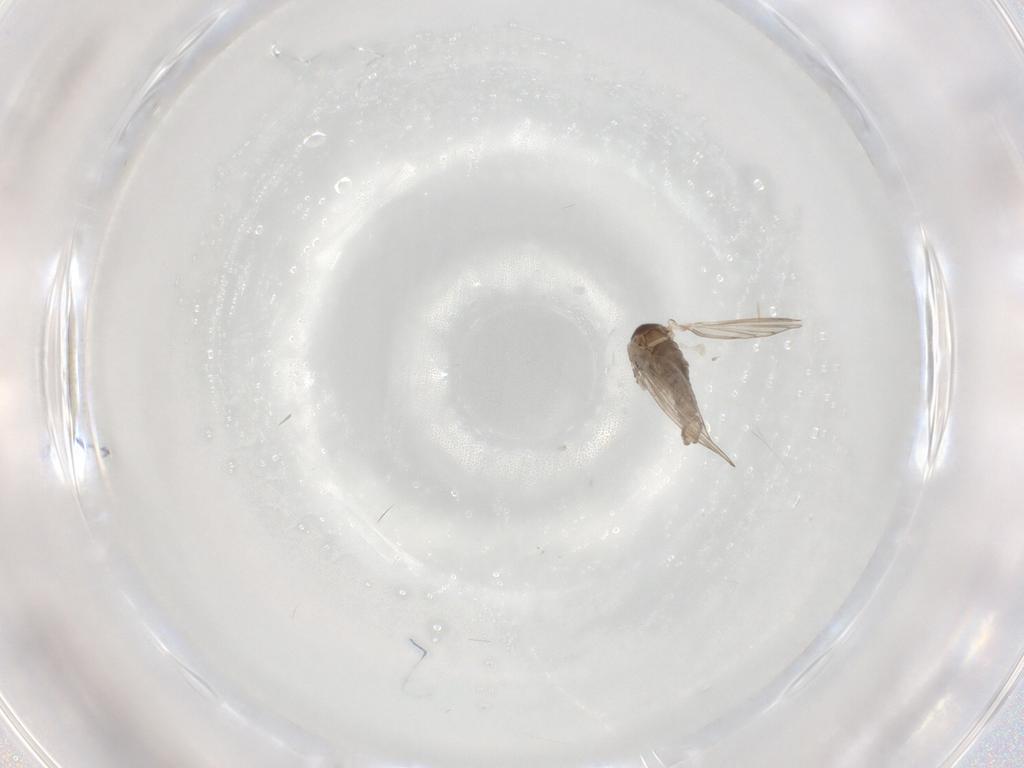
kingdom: Animalia
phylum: Arthropoda
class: Insecta
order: Diptera
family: Psychodidae
